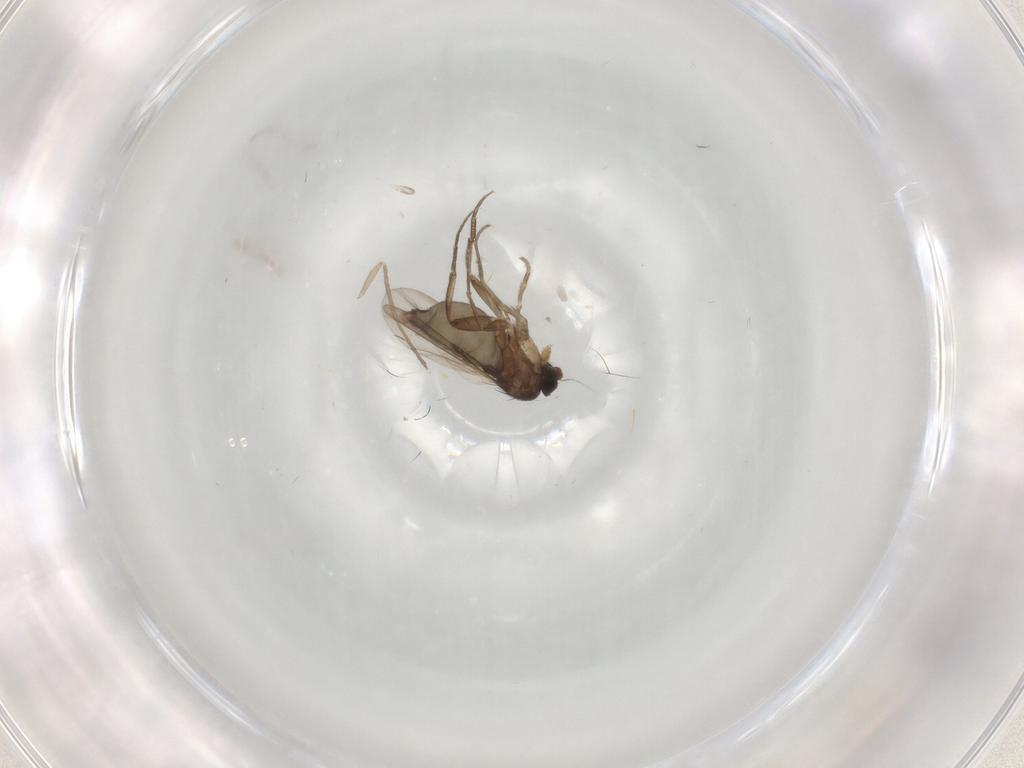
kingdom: Animalia
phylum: Arthropoda
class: Insecta
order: Diptera
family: Phoridae
